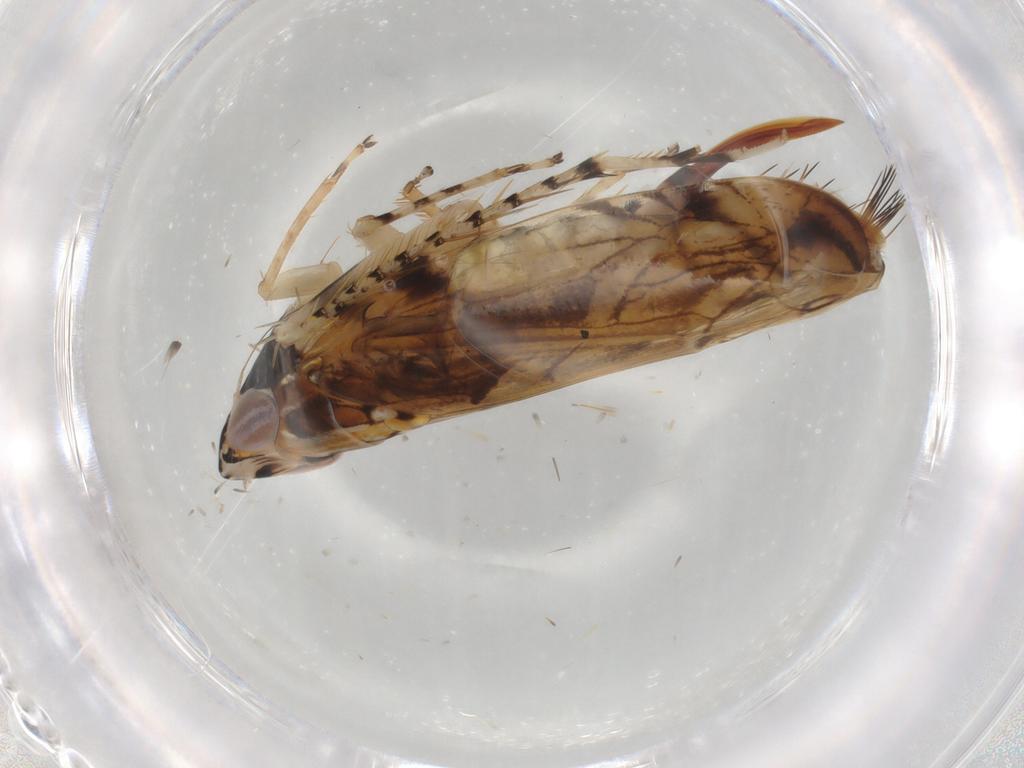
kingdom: Animalia
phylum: Arthropoda
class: Insecta
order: Hemiptera
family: Cicadellidae
